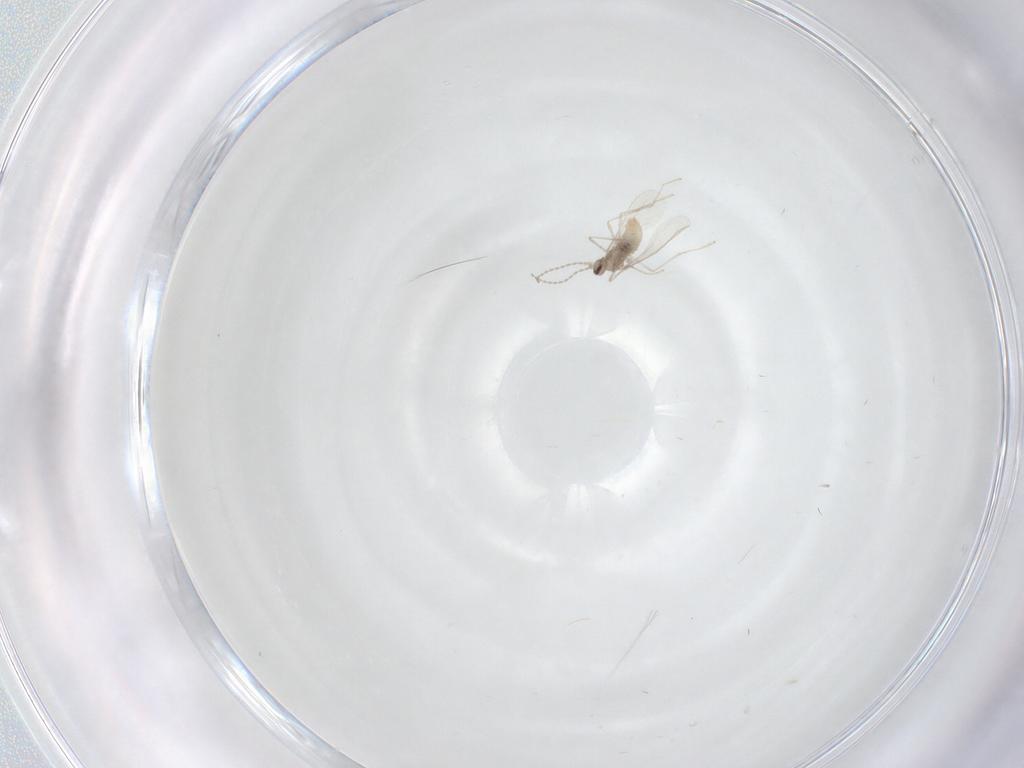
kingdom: Animalia
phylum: Arthropoda
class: Insecta
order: Diptera
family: Cecidomyiidae
